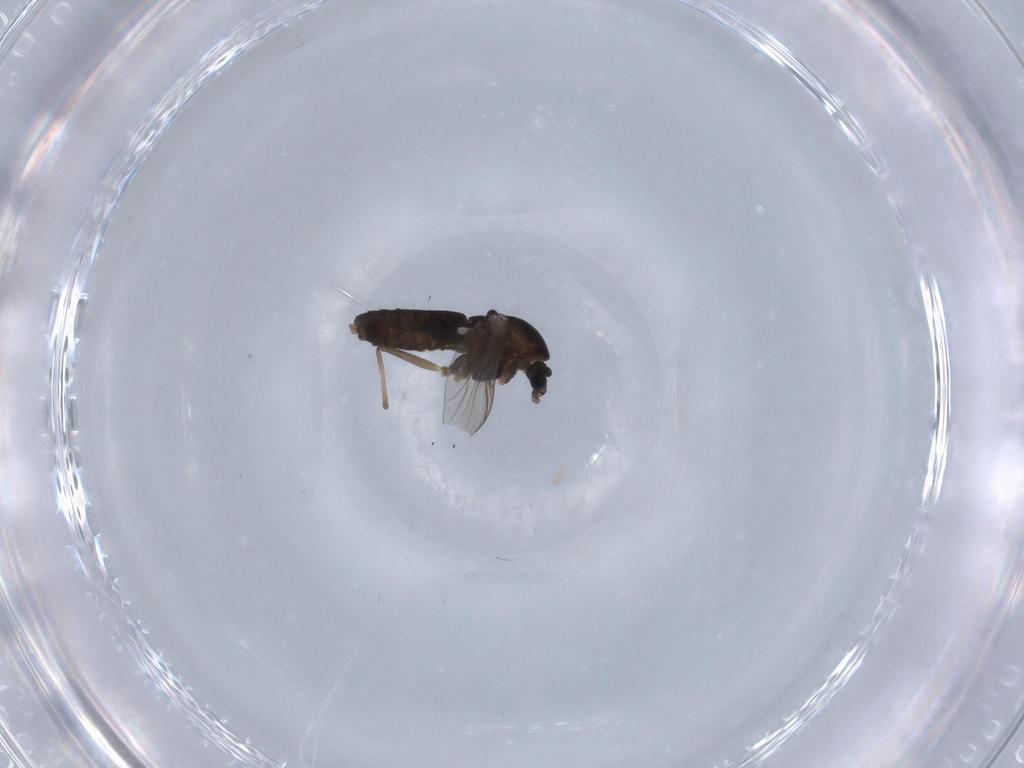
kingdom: Animalia
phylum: Arthropoda
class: Insecta
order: Diptera
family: Chironomidae
